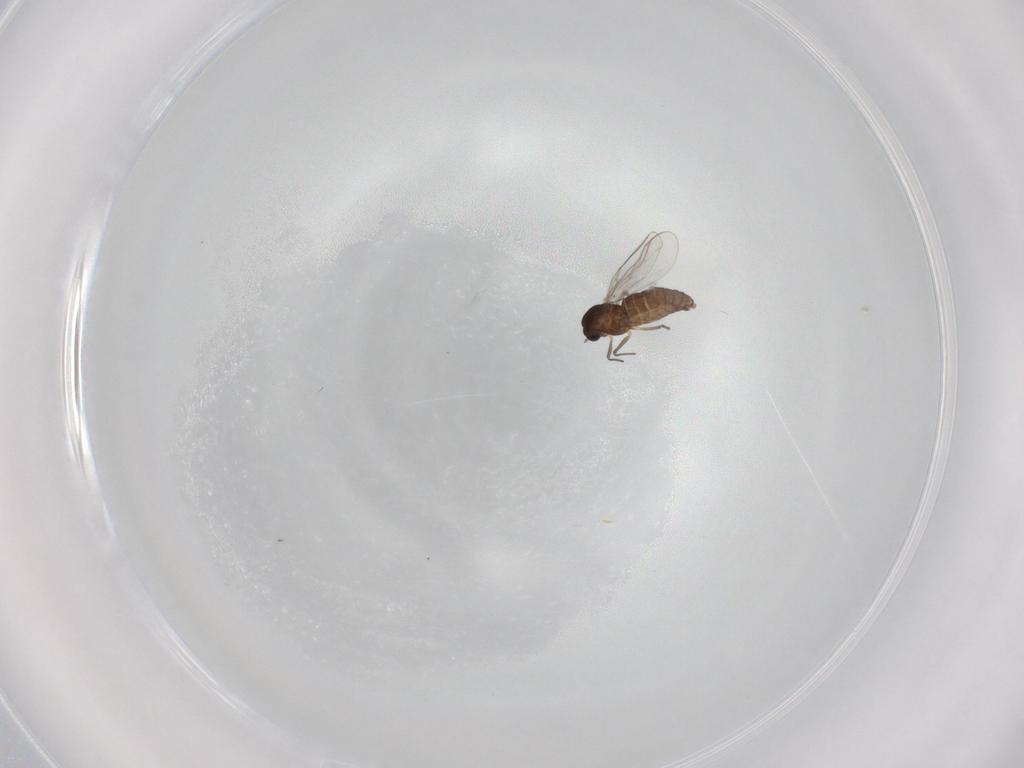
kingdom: Animalia
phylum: Arthropoda
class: Insecta
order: Diptera
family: Chironomidae
